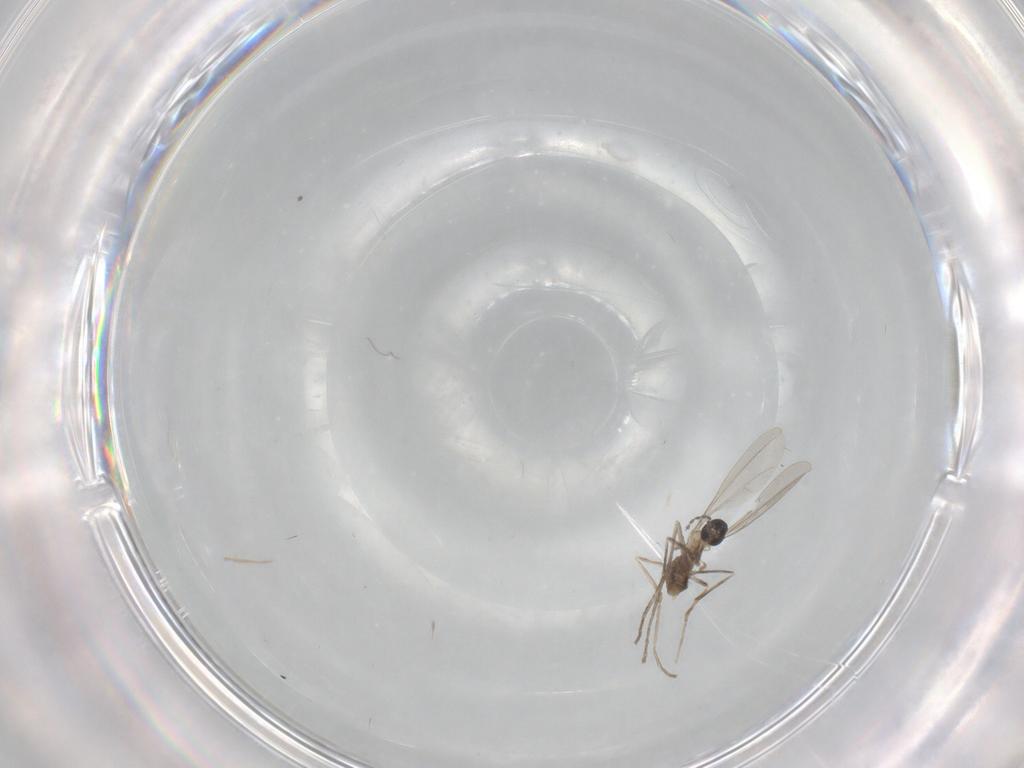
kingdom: Animalia
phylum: Arthropoda
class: Insecta
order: Diptera
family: Cecidomyiidae
